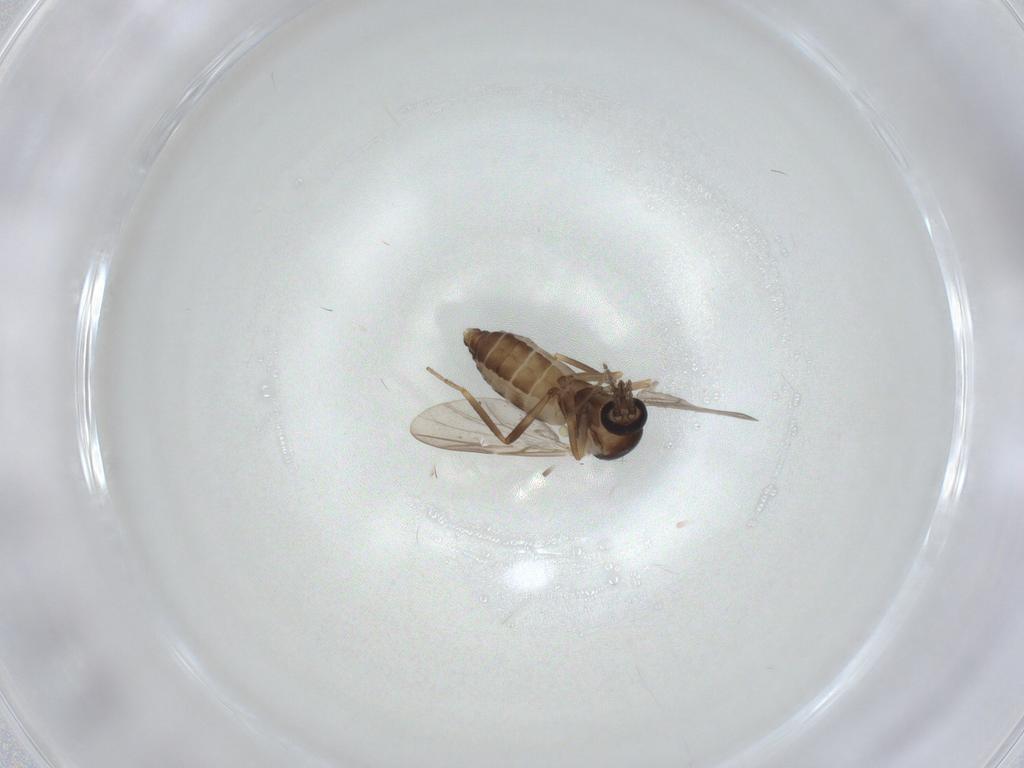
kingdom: Animalia
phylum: Arthropoda
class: Insecta
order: Diptera
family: Ceratopogonidae
